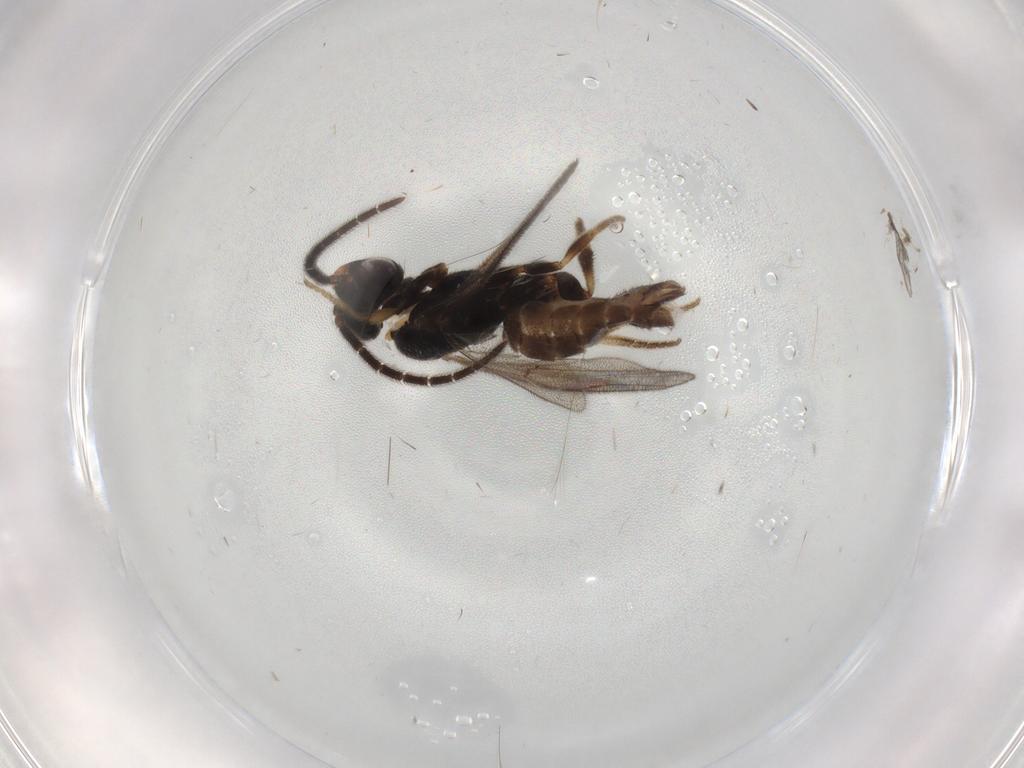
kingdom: Animalia
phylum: Arthropoda
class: Insecta
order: Hymenoptera
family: Dryinidae
